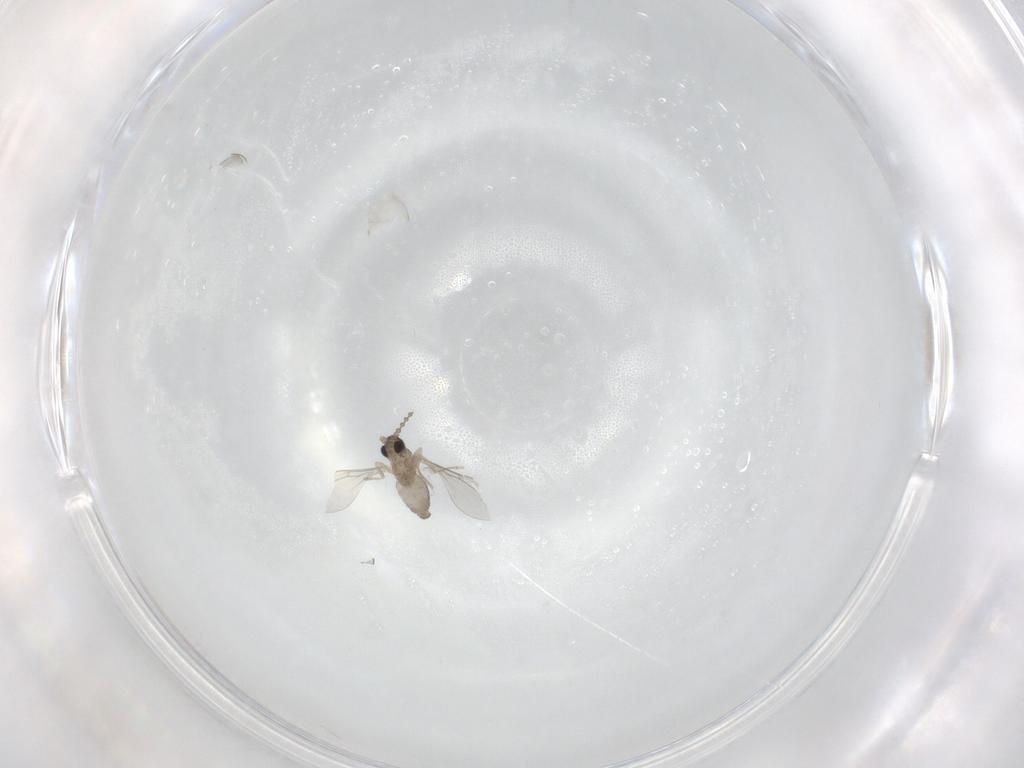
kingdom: Animalia
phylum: Arthropoda
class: Insecta
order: Diptera
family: Cecidomyiidae
